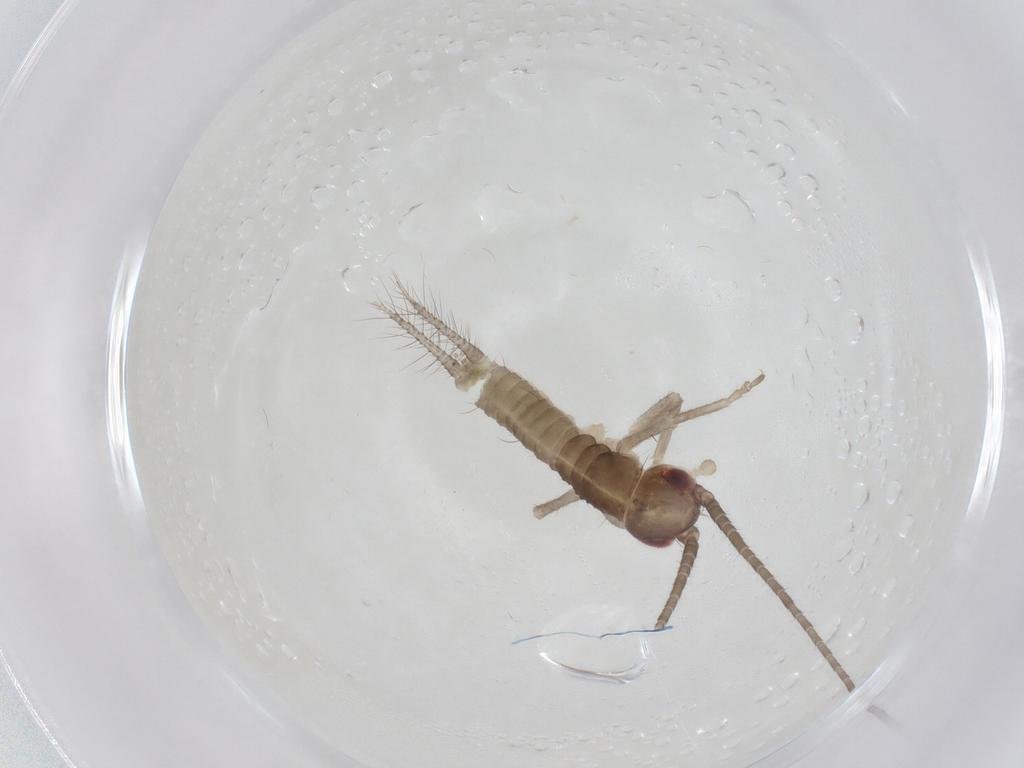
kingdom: Animalia
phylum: Arthropoda
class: Insecta
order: Orthoptera
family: Gryllidae
